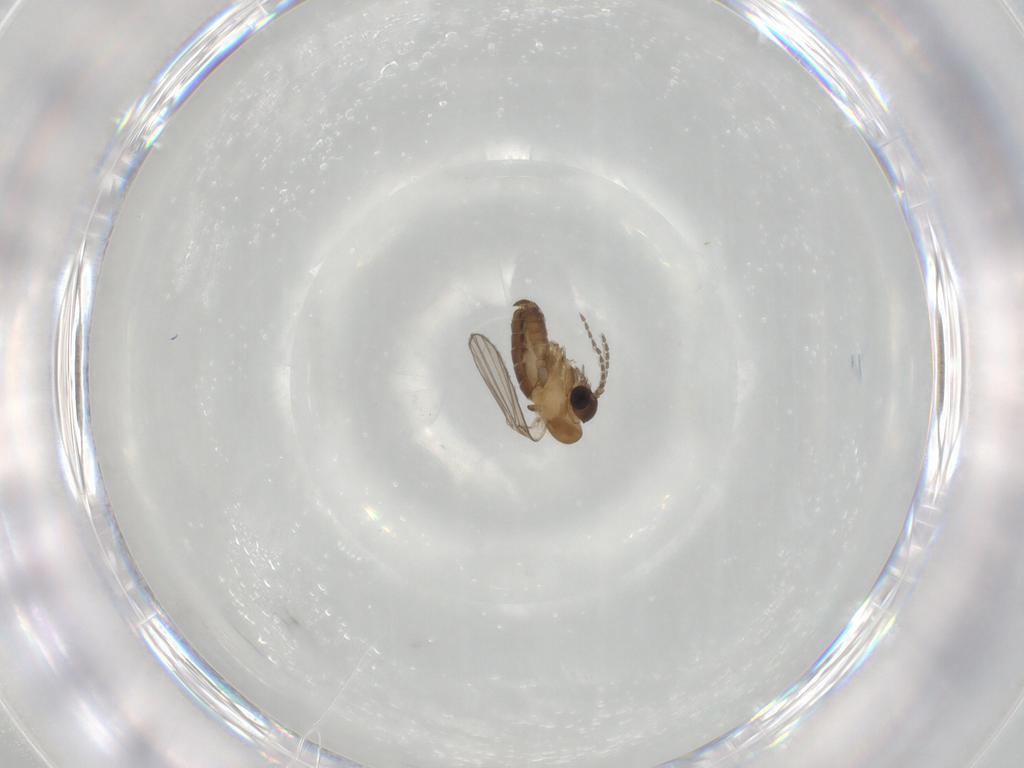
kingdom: Animalia
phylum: Arthropoda
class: Insecta
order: Diptera
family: Psychodidae
